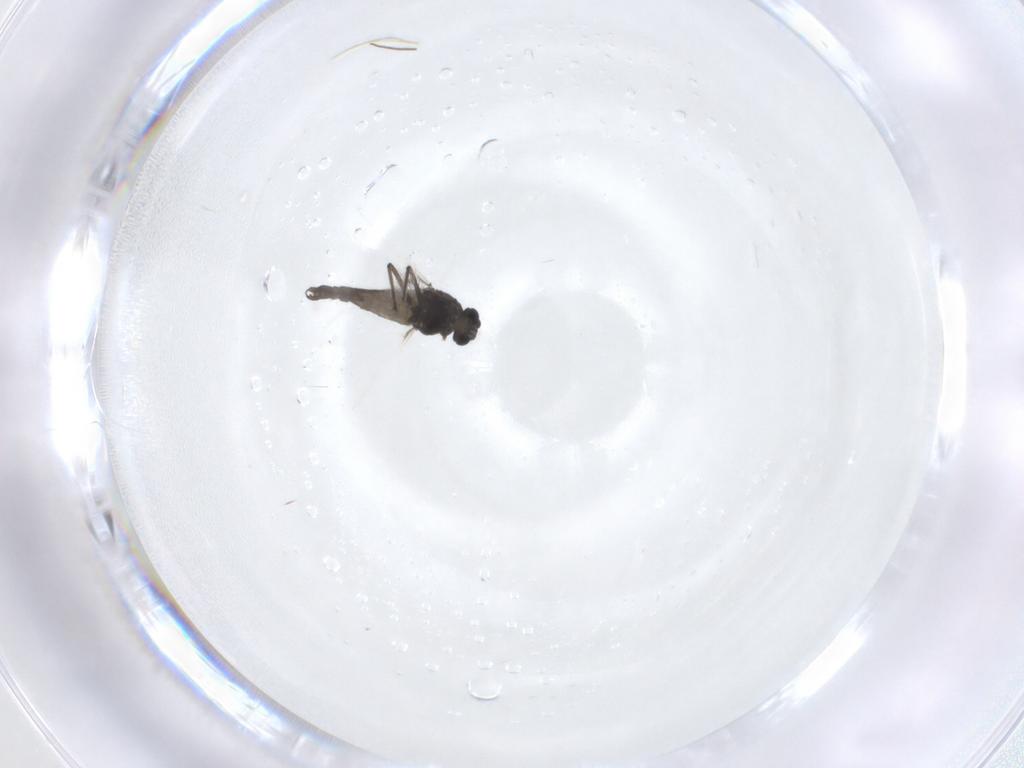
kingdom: Animalia
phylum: Arthropoda
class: Insecta
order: Diptera
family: Chironomidae
